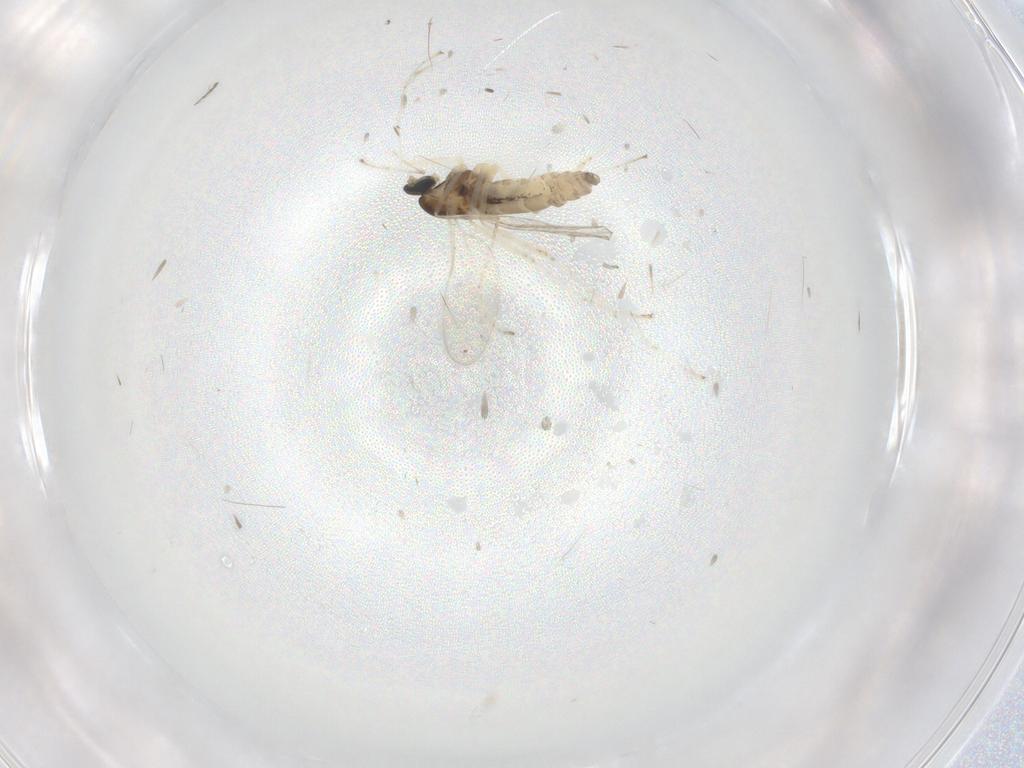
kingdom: Animalia
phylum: Arthropoda
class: Insecta
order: Diptera
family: Cecidomyiidae
